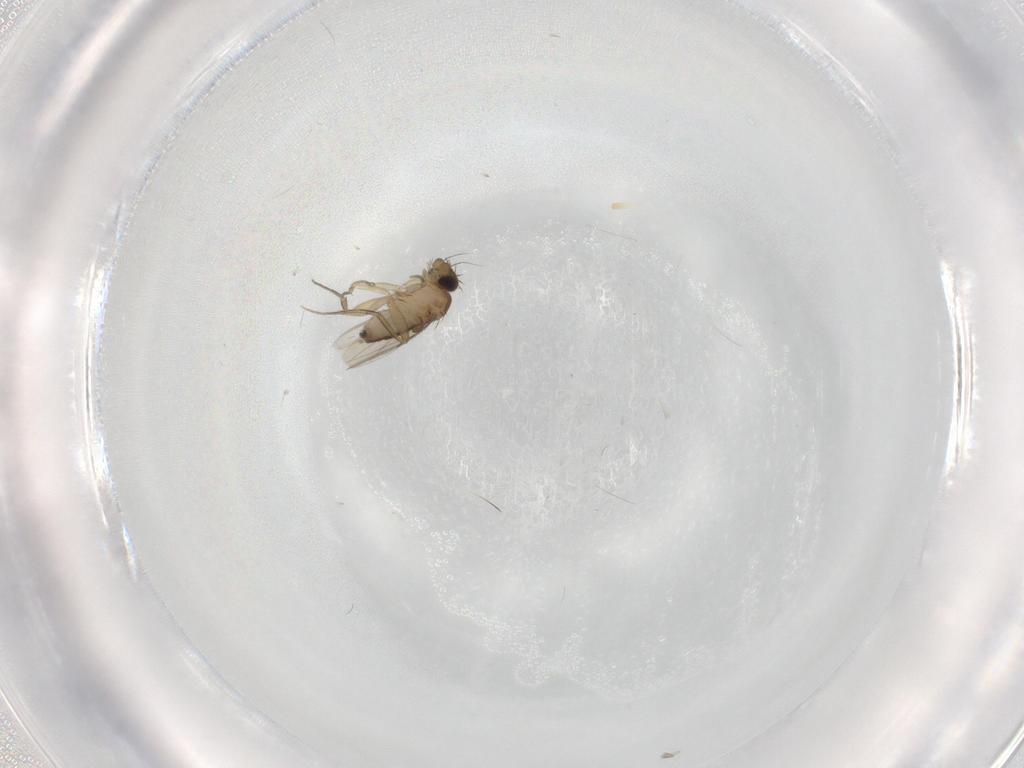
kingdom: Animalia
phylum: Arthropoda
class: Insecta
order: Diptera
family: Phoridae
